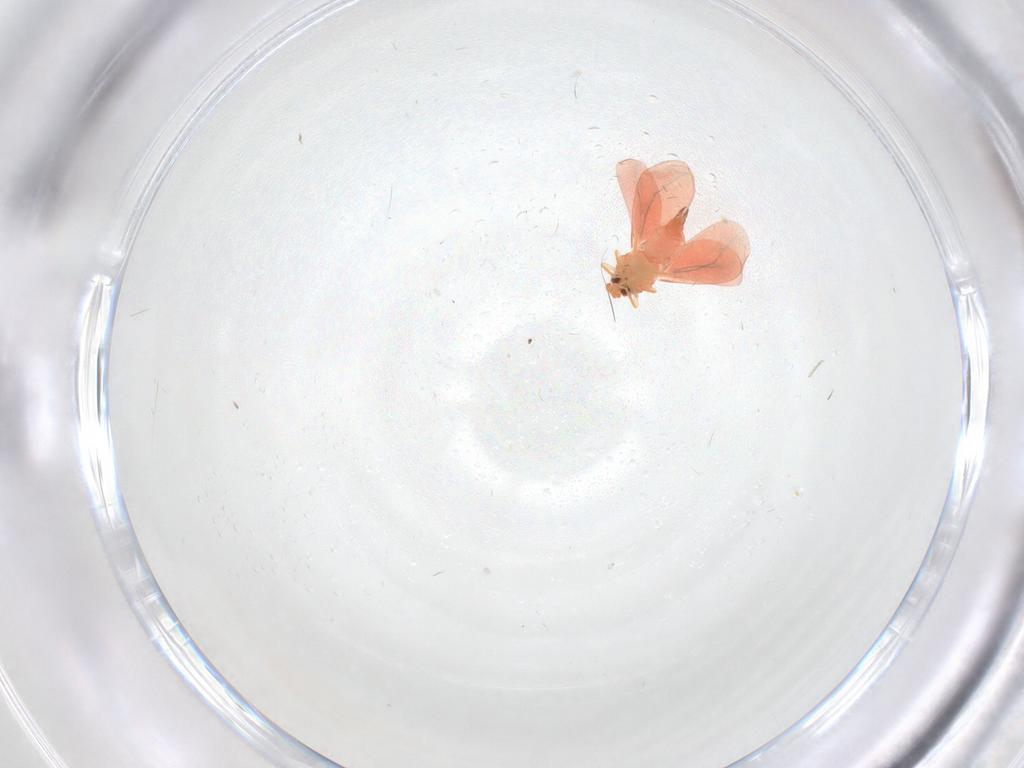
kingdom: Animalia
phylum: Arthropoda
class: Insecta
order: Hemiptera
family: Aleyrodidae
